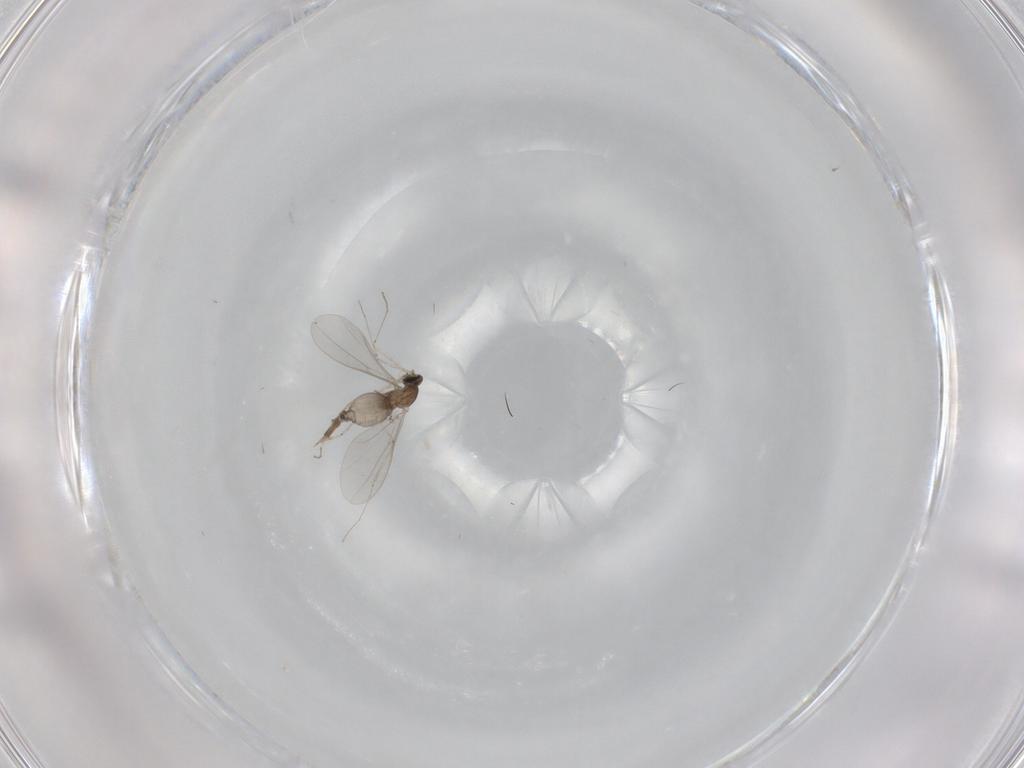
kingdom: Animalia
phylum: Arthropoda
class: Insecta
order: Diptera
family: Cecidomyiidae
